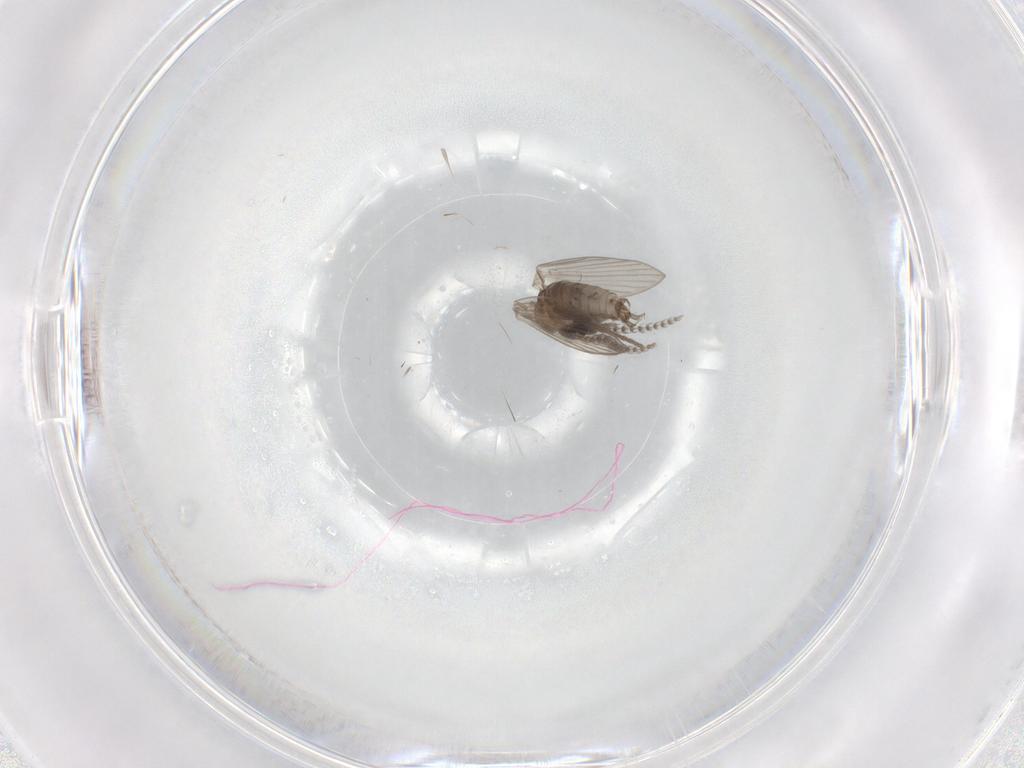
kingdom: Animalia
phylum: Arthropoda
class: Insecta
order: Diptera
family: Psychodidae
